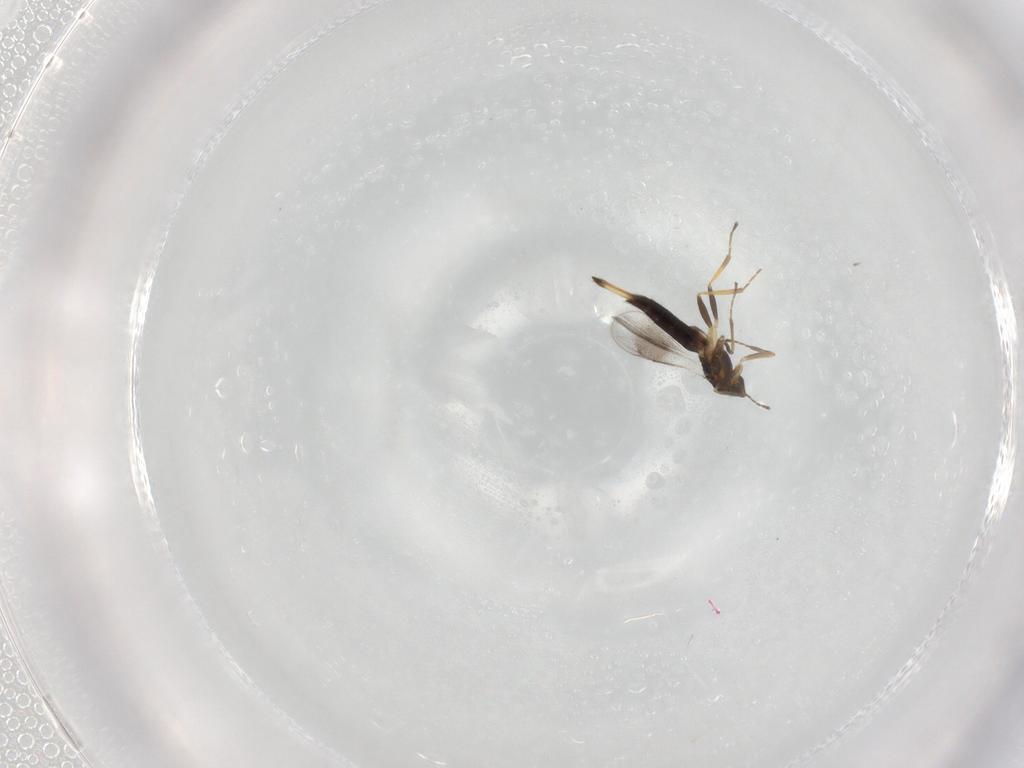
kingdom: Animalia
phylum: Arthropoda
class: Insecta
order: Hymenoptera
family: Eulophidae
